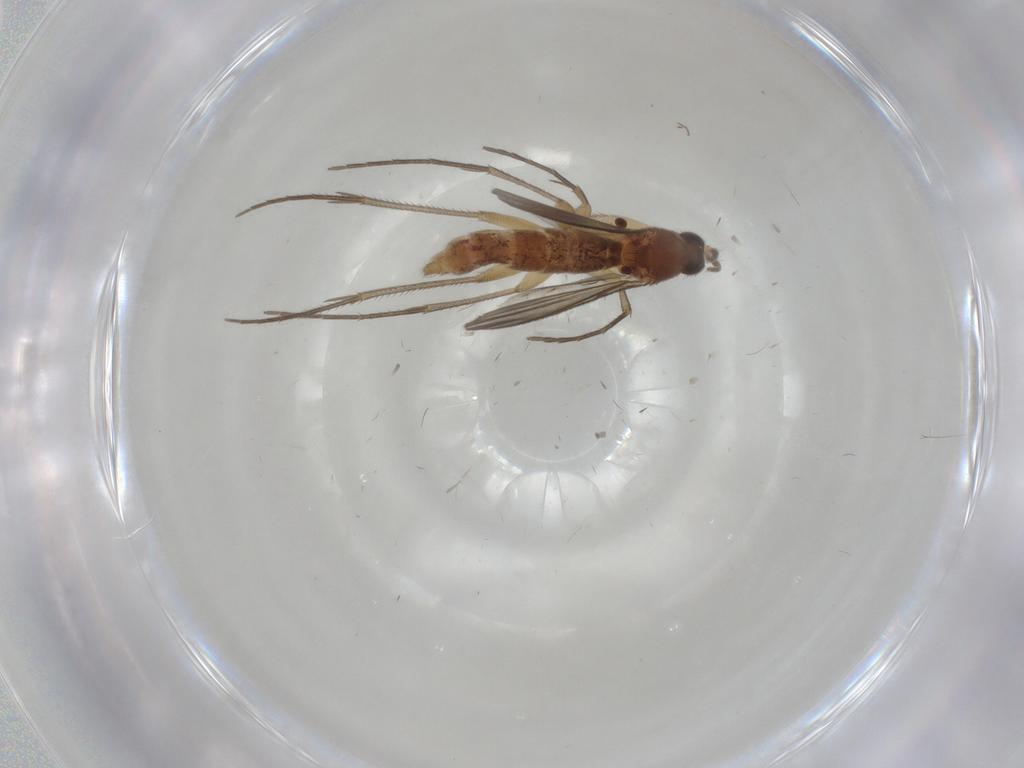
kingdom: Animalia
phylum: Arthropoda
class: Insecta
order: Diptera
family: Mycetophilidae
